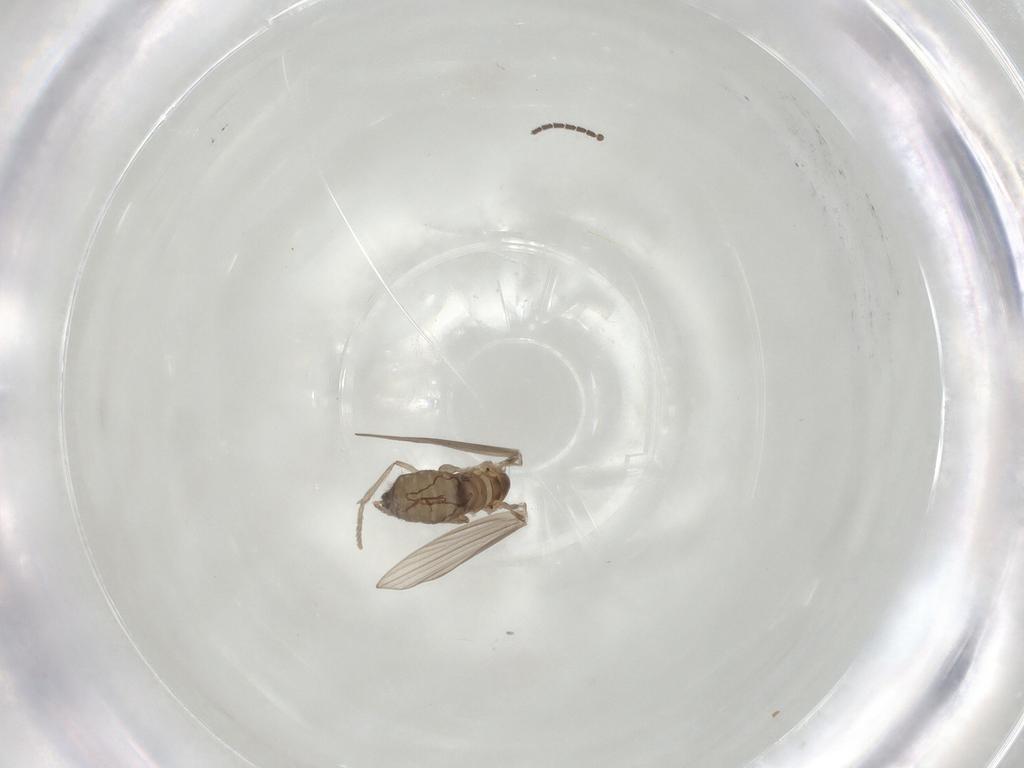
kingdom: Animalia
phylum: Arthropoda
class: Insecta
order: Diptera
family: Psychodidae
